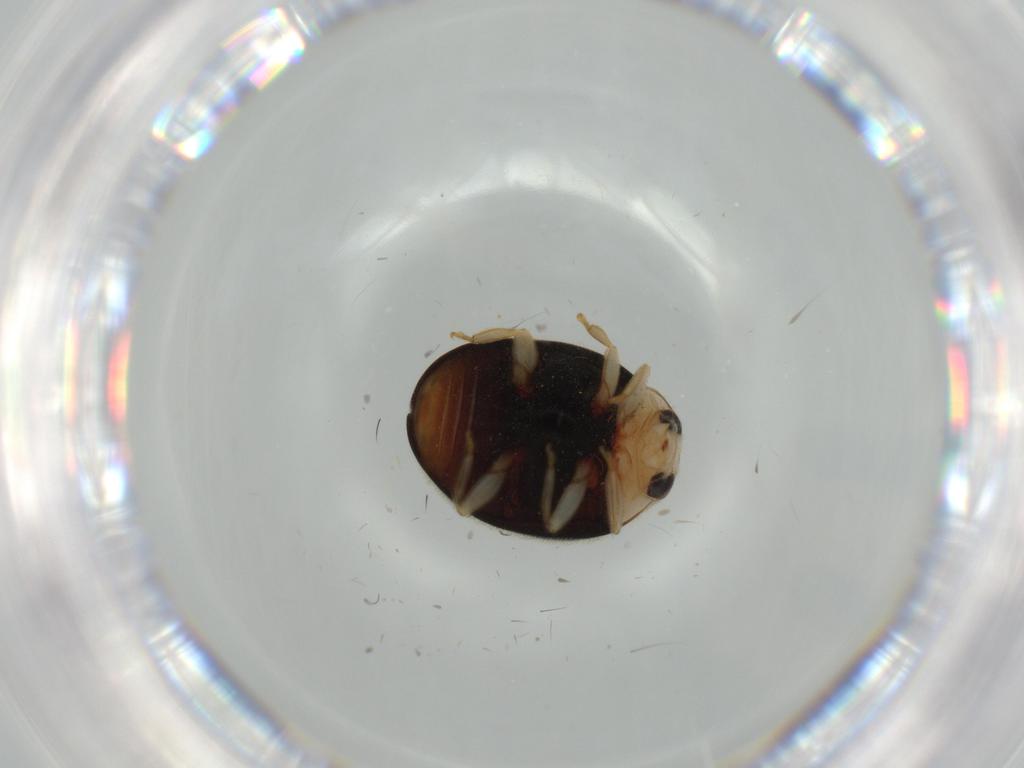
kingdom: Animalia
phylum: Arthropoda
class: Insecta
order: Coleoptera
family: Coccinellidae
